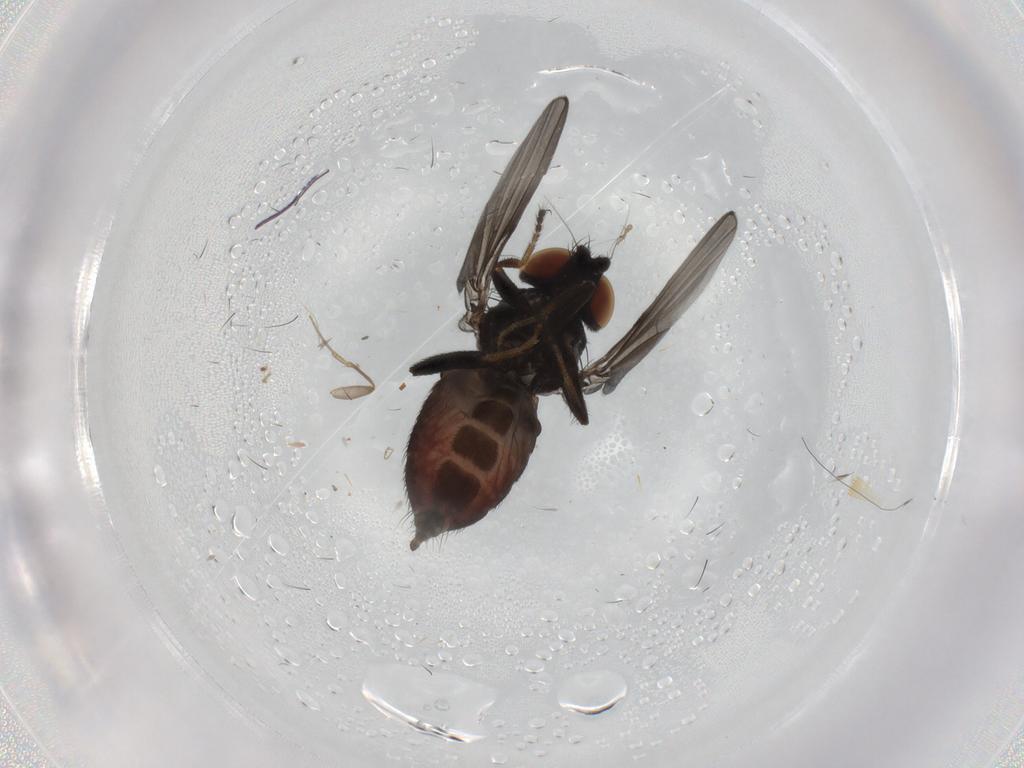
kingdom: Animalia
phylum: Arthropoda
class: Insecta
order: Diptera
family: Milichiidae
